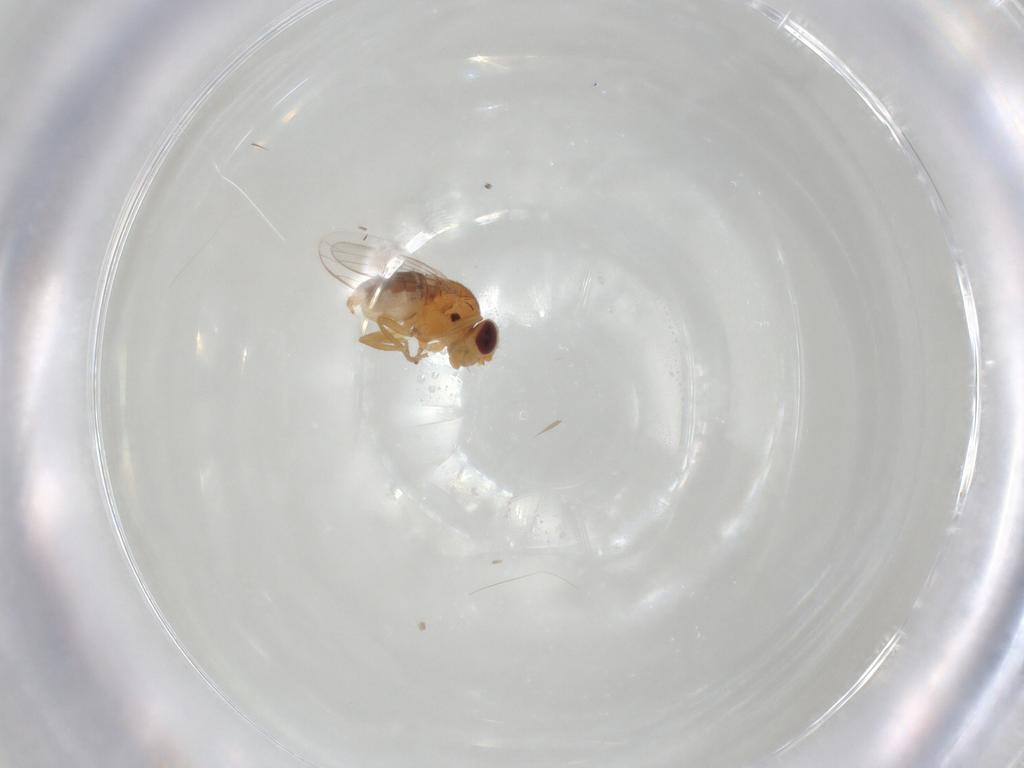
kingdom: Animalia
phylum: Arthropoda
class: Insecta
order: Diptera
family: Chloropidae
